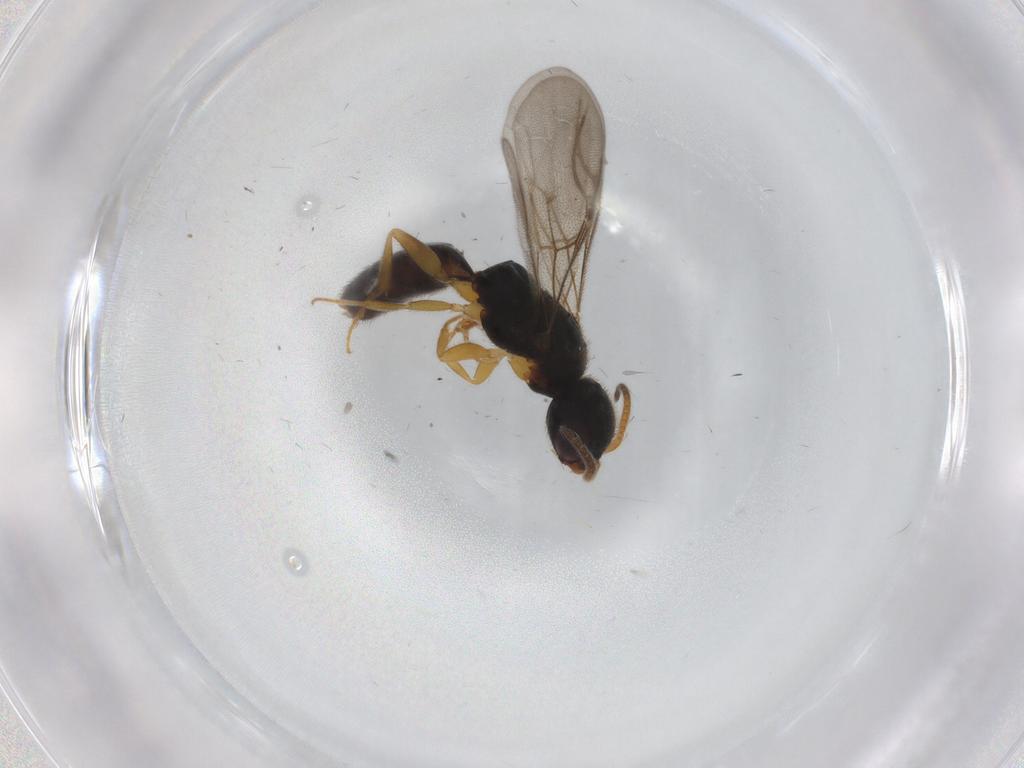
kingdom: Animalia
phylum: Arthropoda
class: Insecta
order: Hymenoptera
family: Bethylidae
